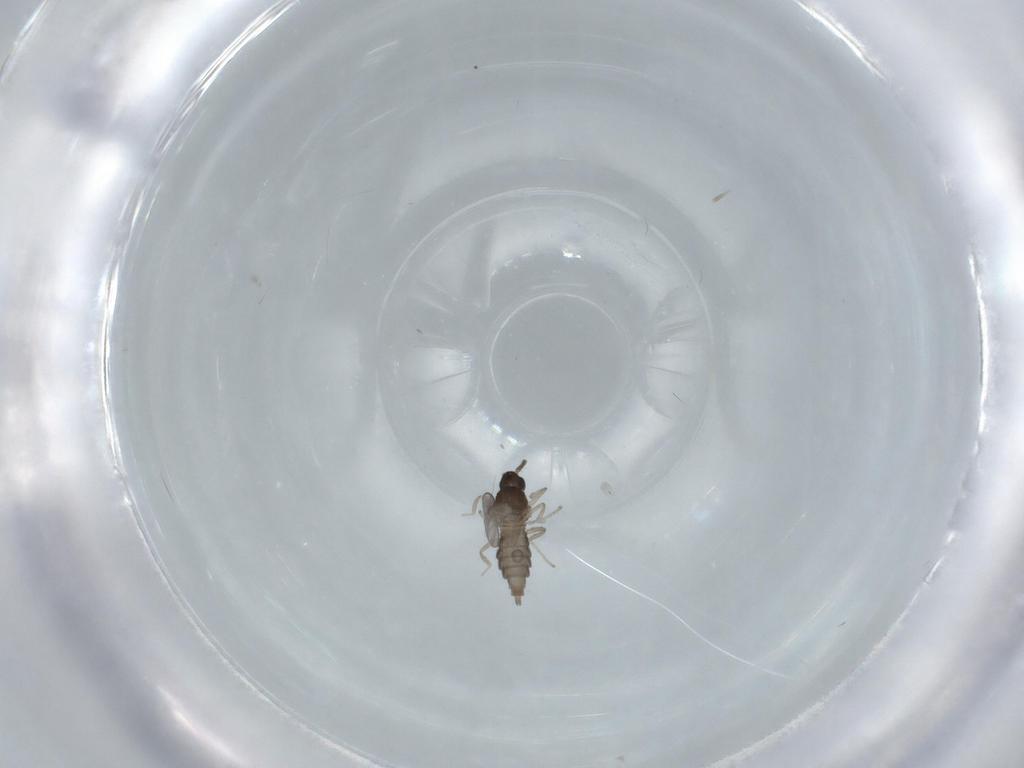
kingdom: Animalia
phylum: Arthropoda
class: Insecta
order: Diptera
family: Cecidomyiidae
